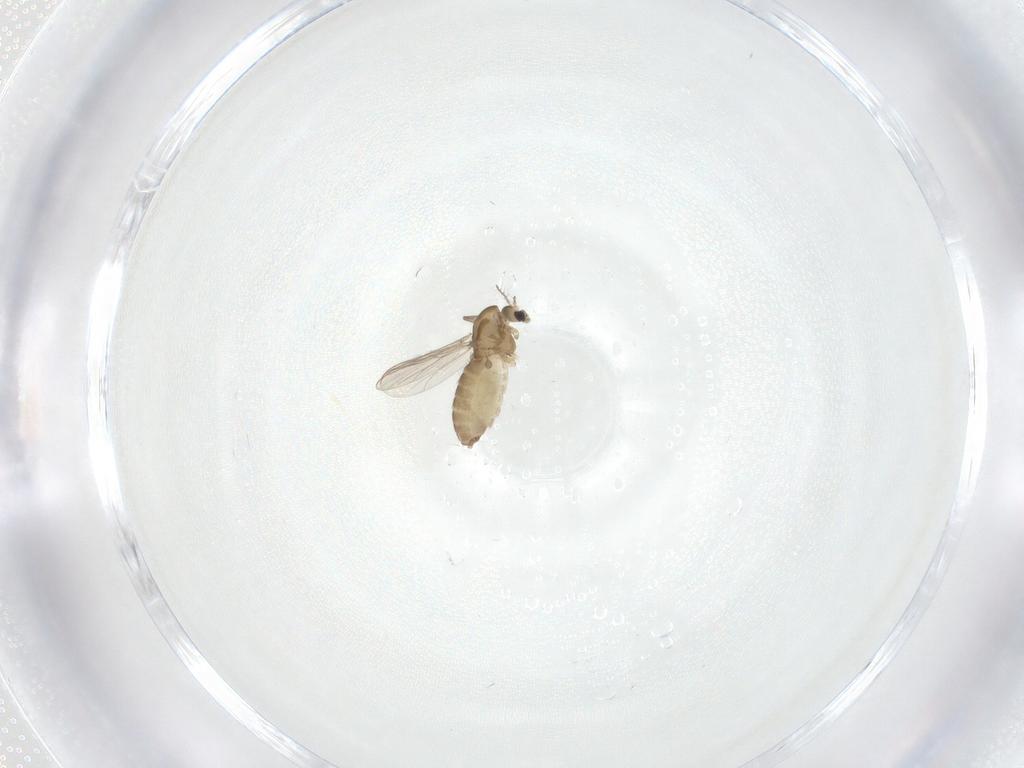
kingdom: Animalia
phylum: Arthropoda
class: Insecta
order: Diptera
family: Chironomidae
